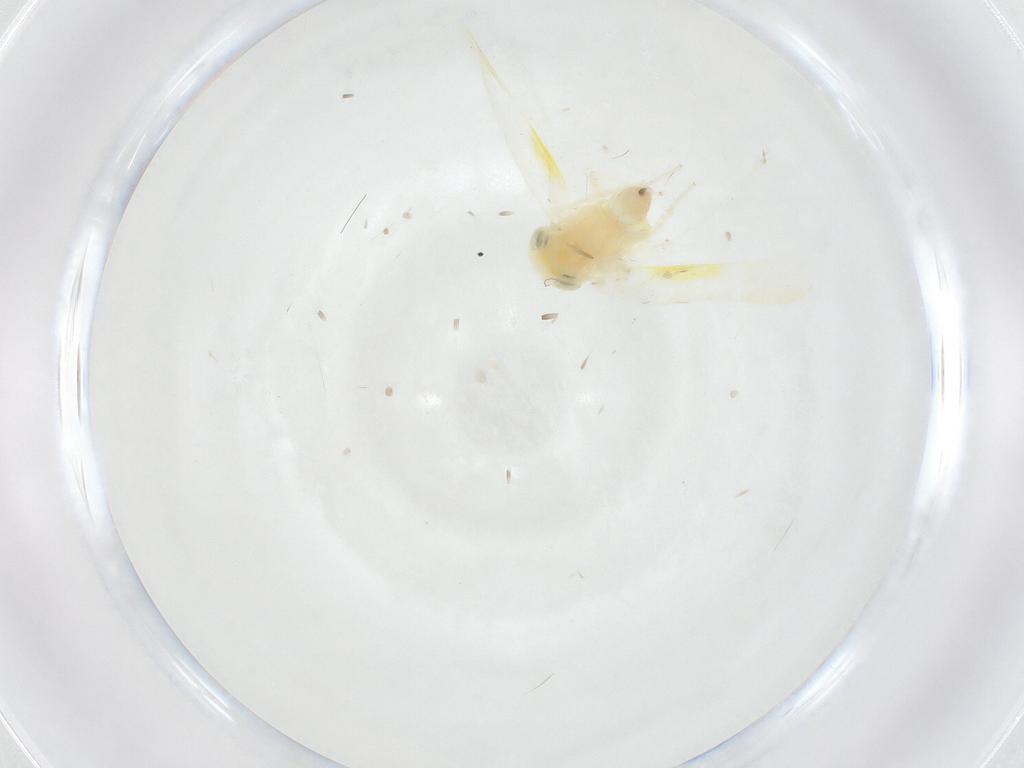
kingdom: Animalia
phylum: Arthropoda
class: Insecta
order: Hemiptera
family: Cicadellidae
